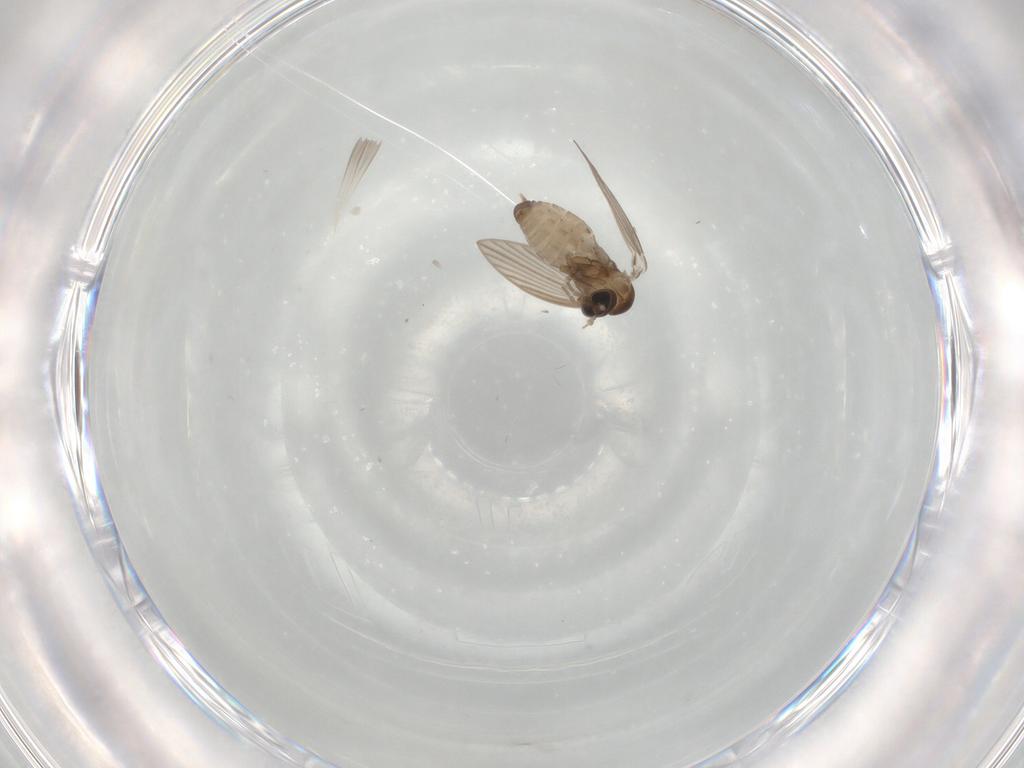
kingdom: Animalia
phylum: Arthropoda
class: Insecta
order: Diptera
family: Psychodidae
